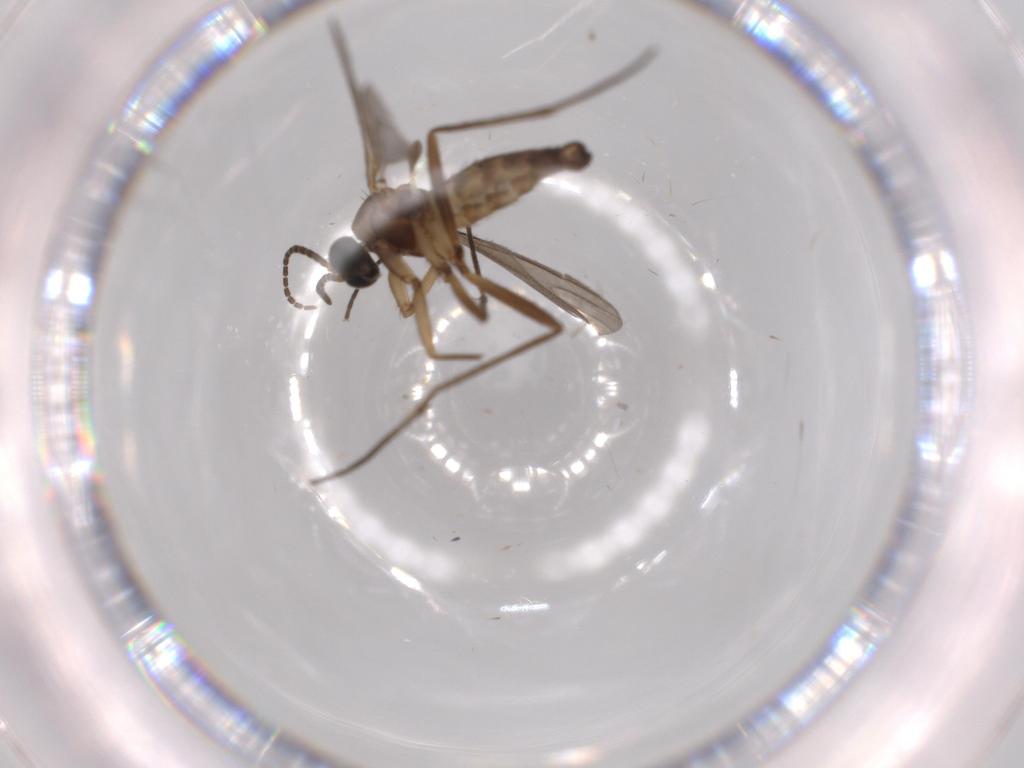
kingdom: Animalia
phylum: Arthropoda
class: Insecta
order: Diptera
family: Sciaridae
